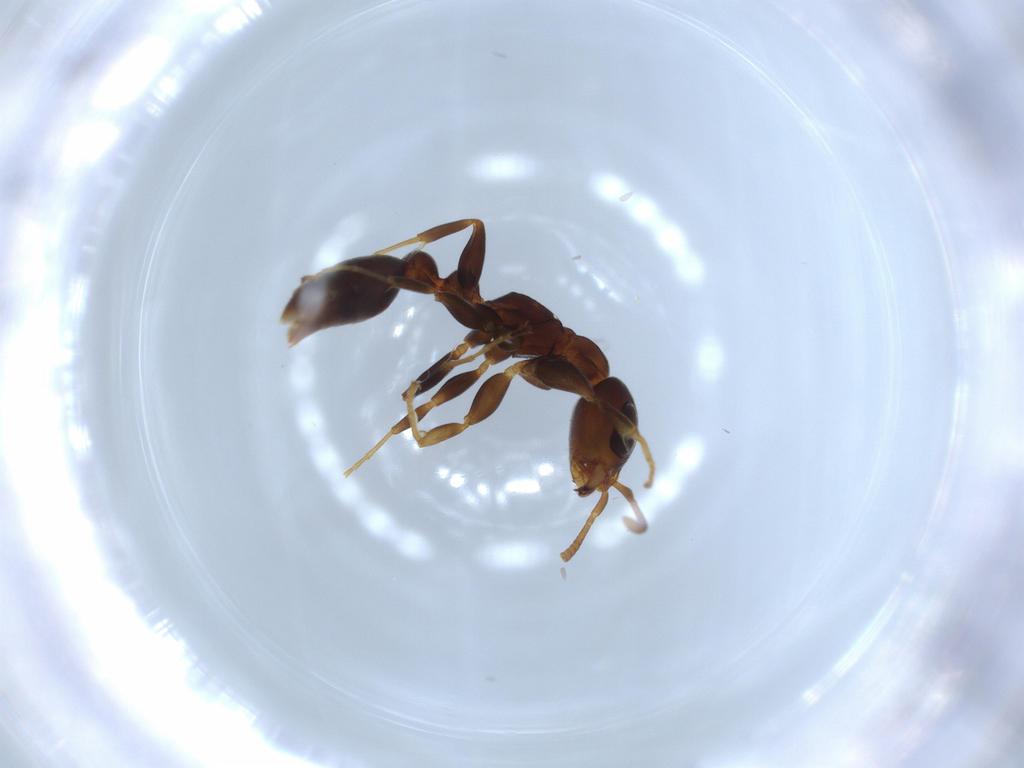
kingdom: Animalia
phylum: Arthropoda
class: Insecta
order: Hymenoptera
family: Formicidae
